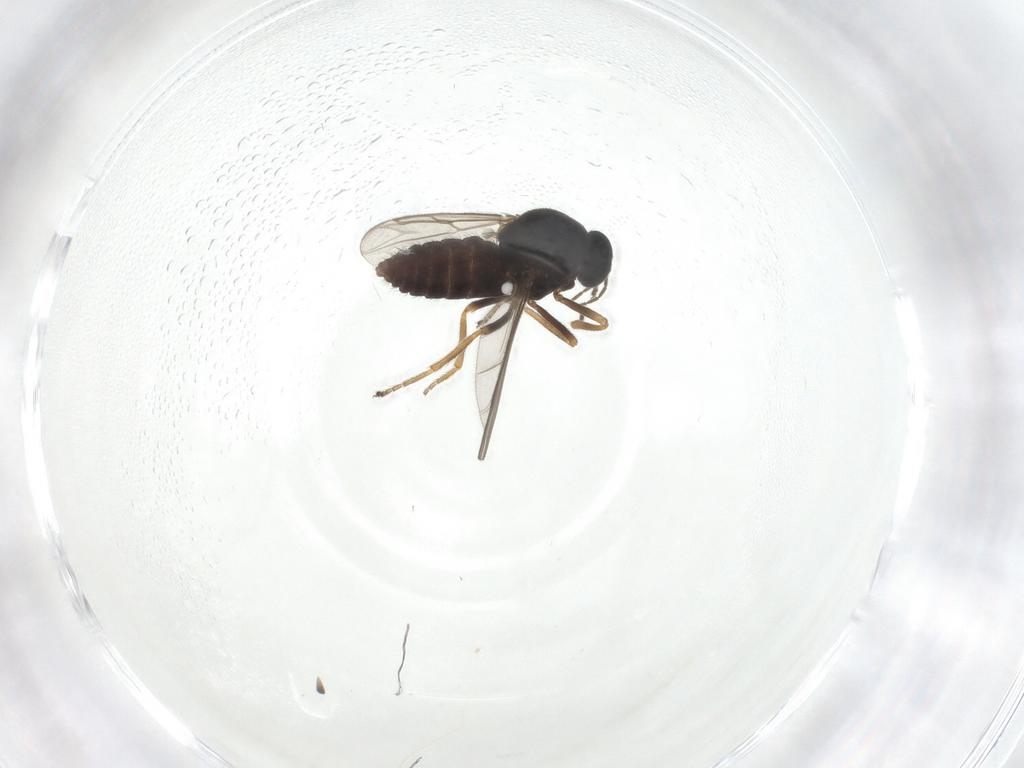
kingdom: Animalia
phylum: Arthropoda
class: Insecta
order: Diptera
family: Ceratopogonidae
